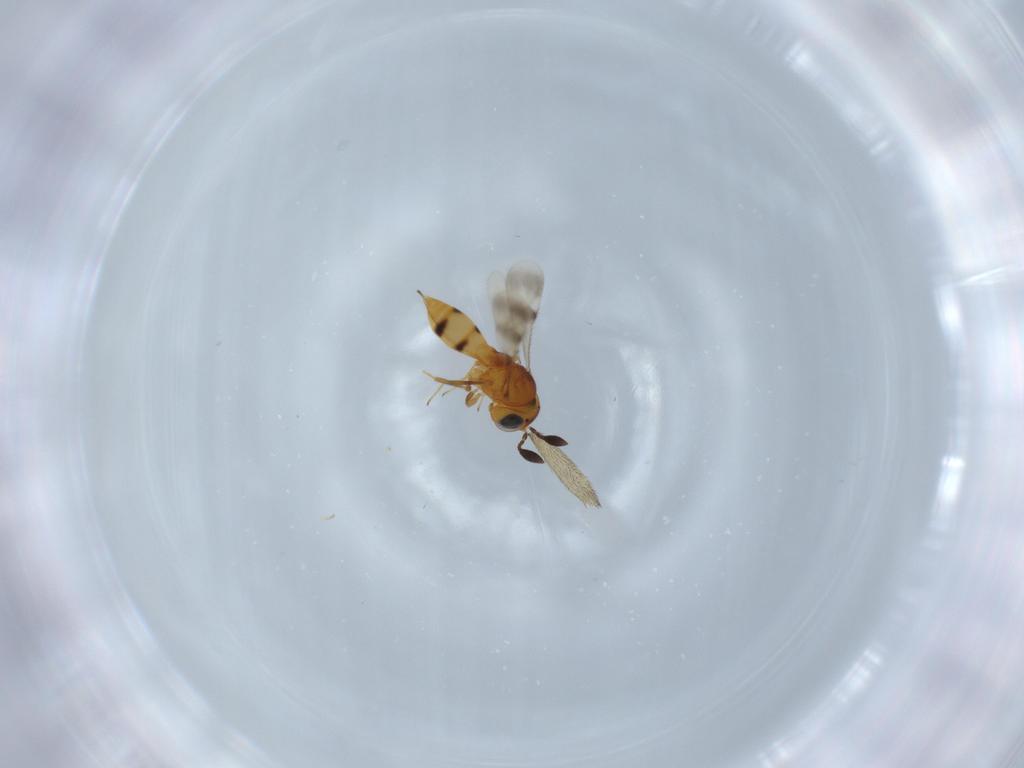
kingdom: Animalia
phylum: Arthropoda
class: Insecta
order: Hymenoptera
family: Scelionidae
